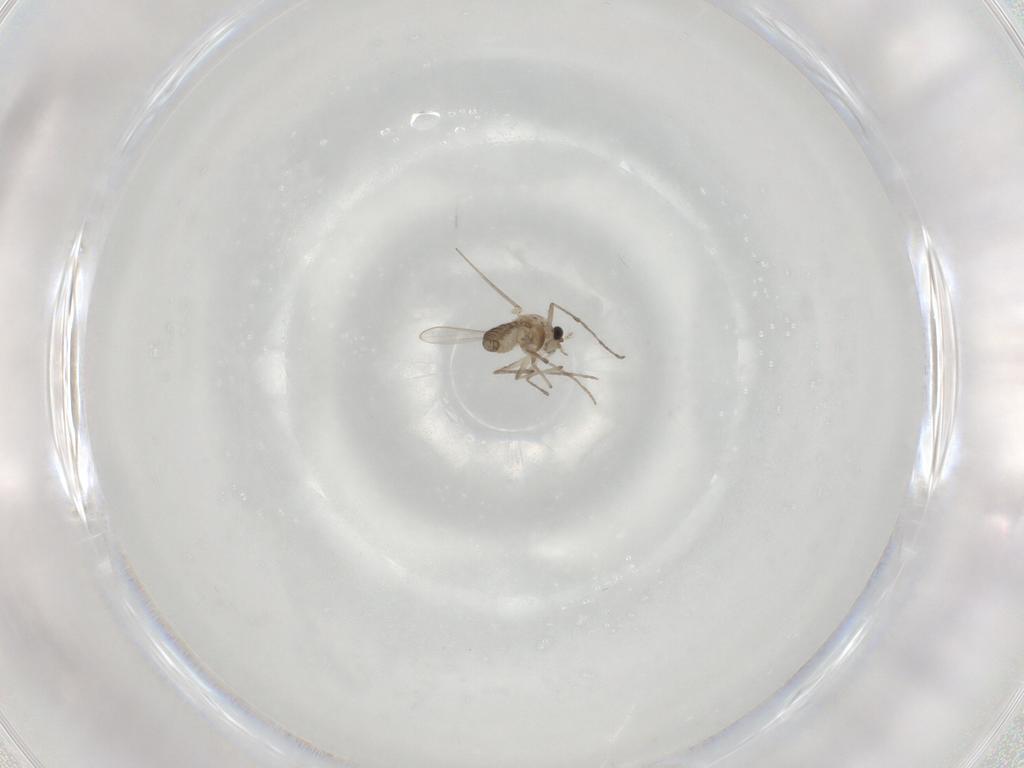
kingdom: Animalia
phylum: Arthropoda
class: Insecta
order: Diptera
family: Chironomidae
